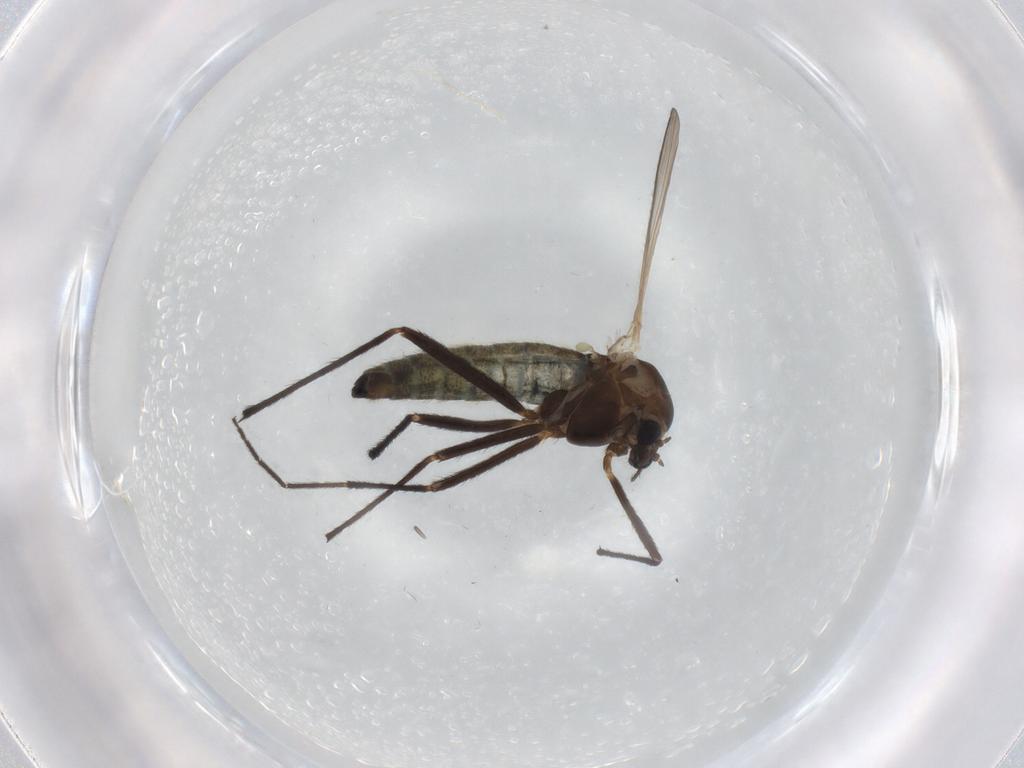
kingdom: Animalia
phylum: Arthropoda
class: Insecta
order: Diptera
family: Chironomidae
